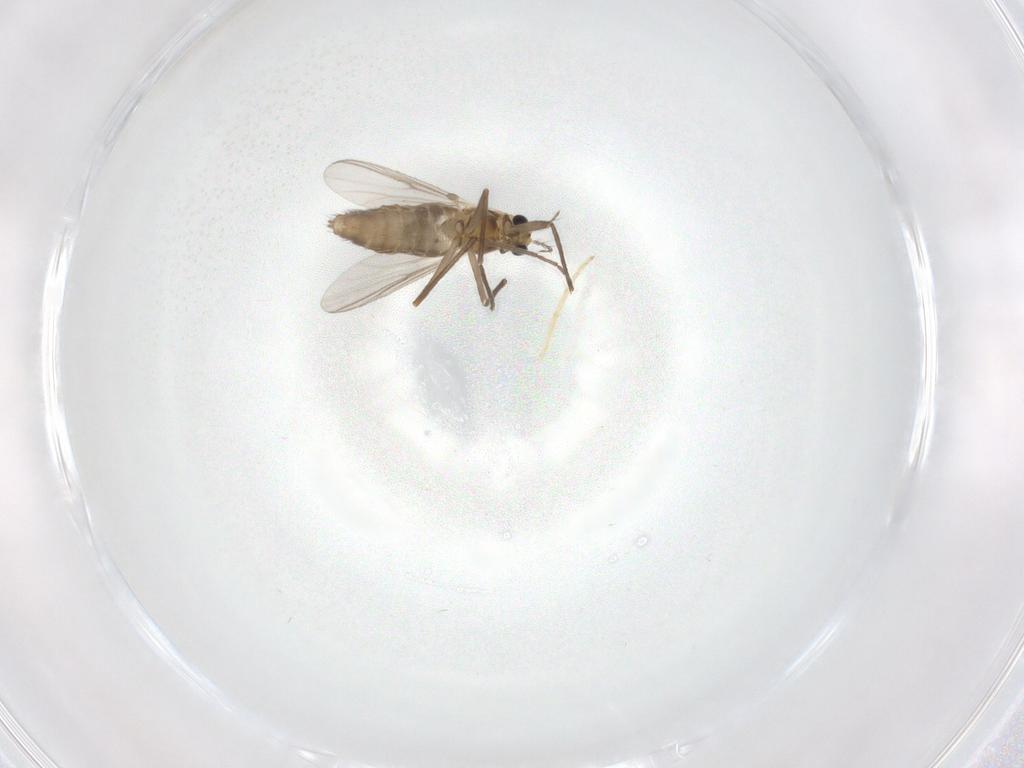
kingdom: Animalia
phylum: Arthropoda
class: Insecta
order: Diptera
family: Chironomidae
